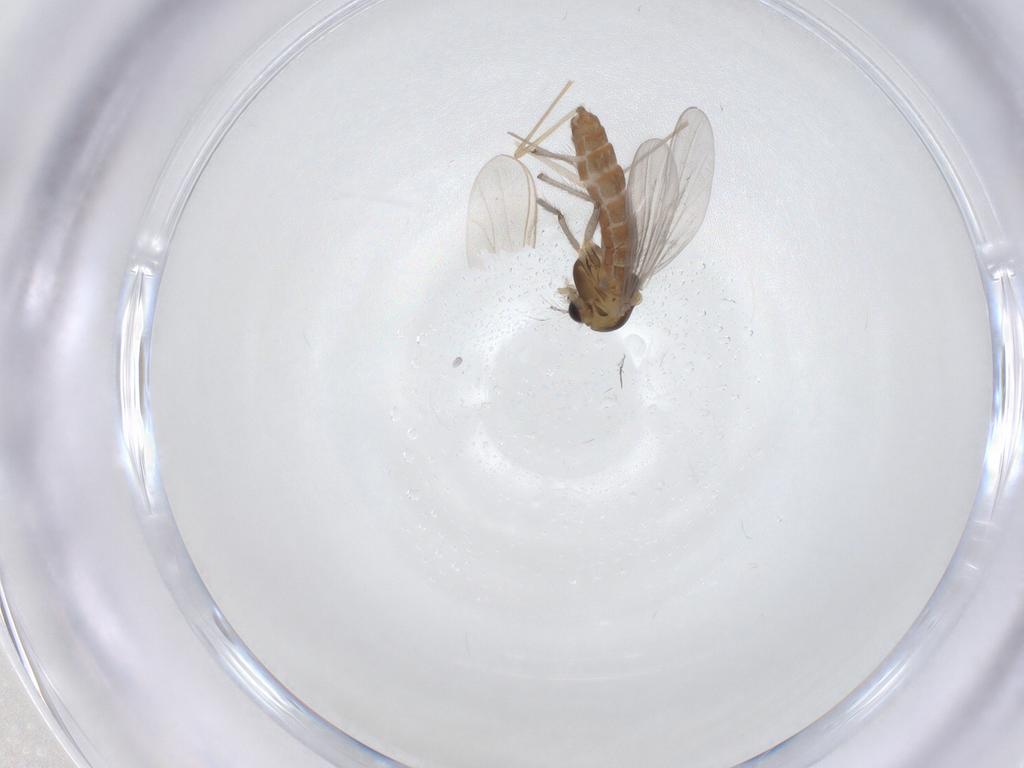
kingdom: Animalia
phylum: Arthropoda
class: Insecta
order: Diptera
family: Chironomidae
